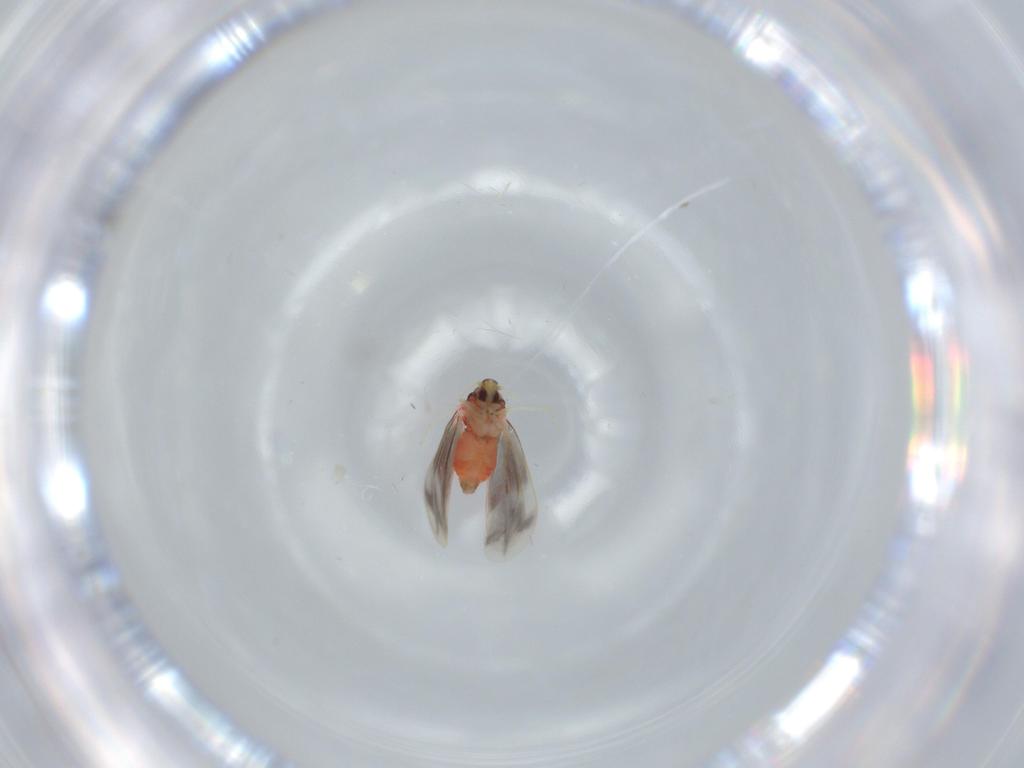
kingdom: Animalia
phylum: Arthropoda
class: Insecta
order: Hemiptera
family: Aleyrodidae
